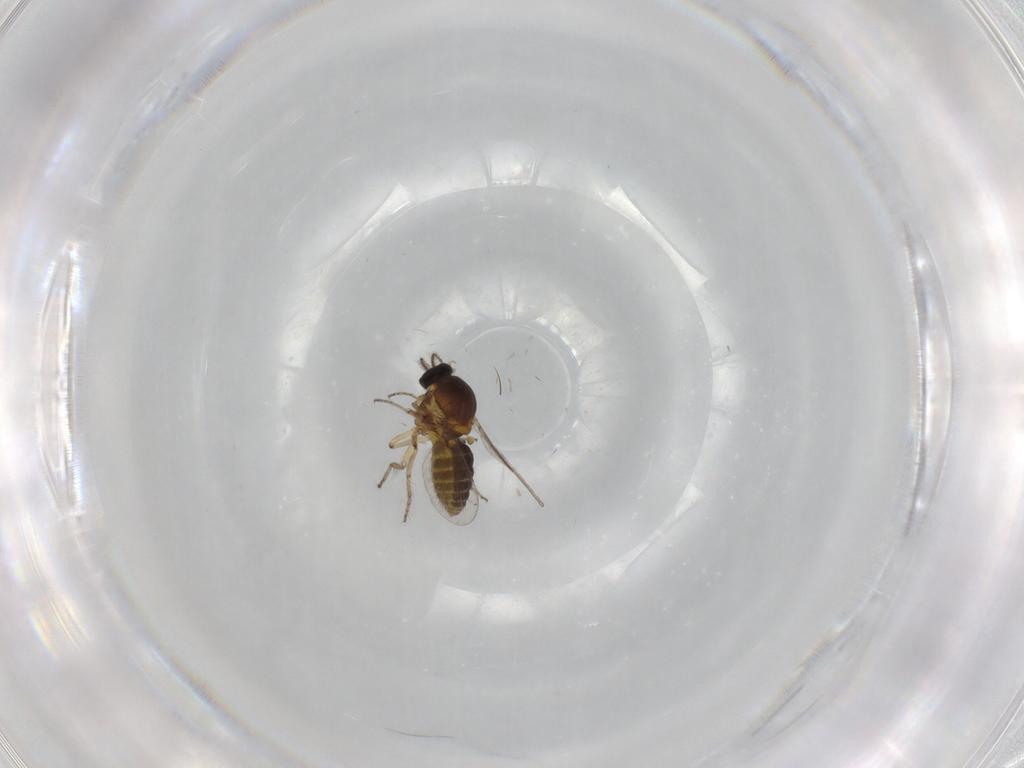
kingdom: Animalia
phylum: Arthropoda
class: Insecta
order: Diptera
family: Ceratopogonidae
